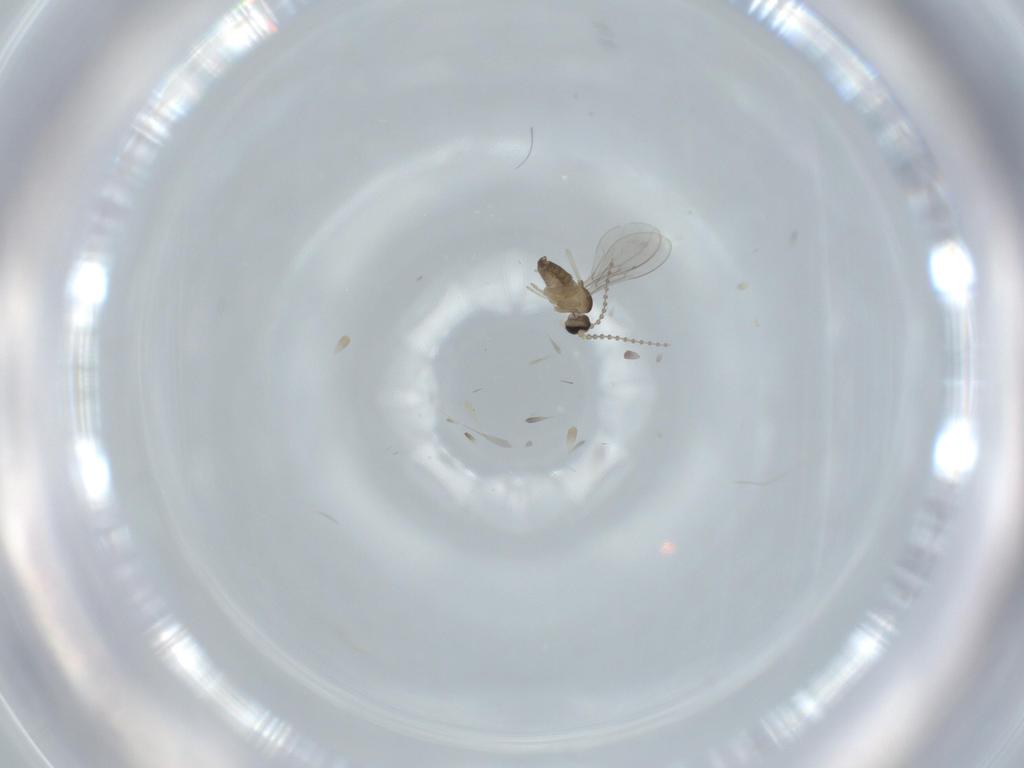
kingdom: Animalia
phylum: Arthropoda
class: Insecta
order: Diptera
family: Cecidomyiidae
